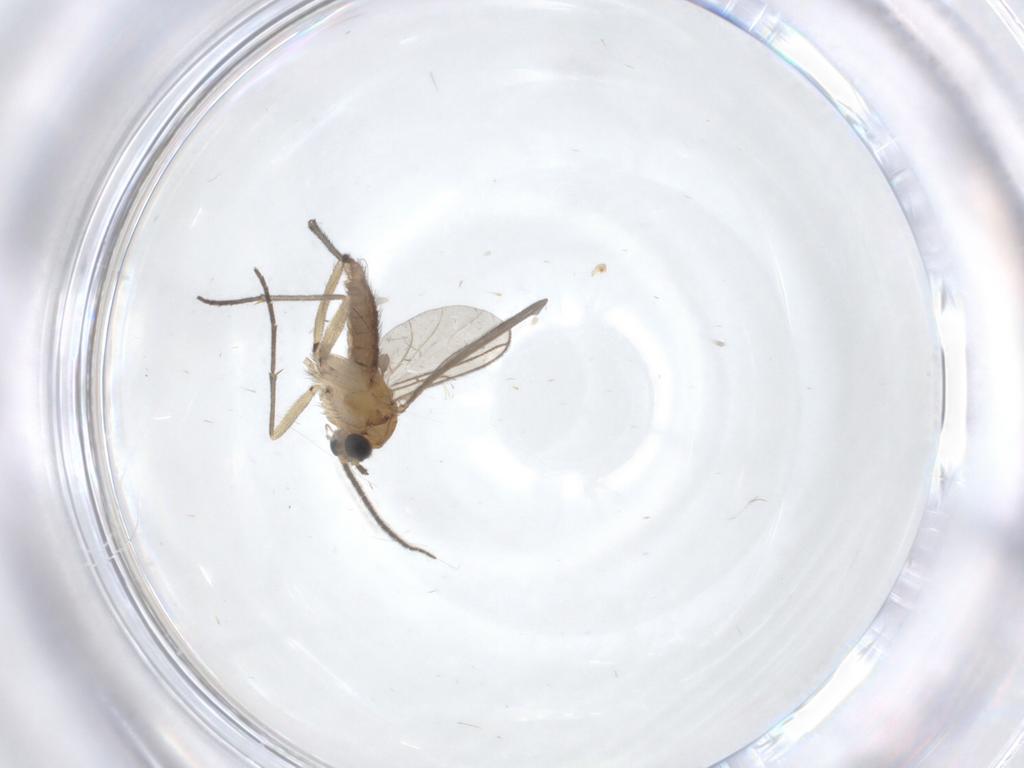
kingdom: Animalia
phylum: Arthropoda
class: Insecta
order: Diptera
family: Sciaridae
